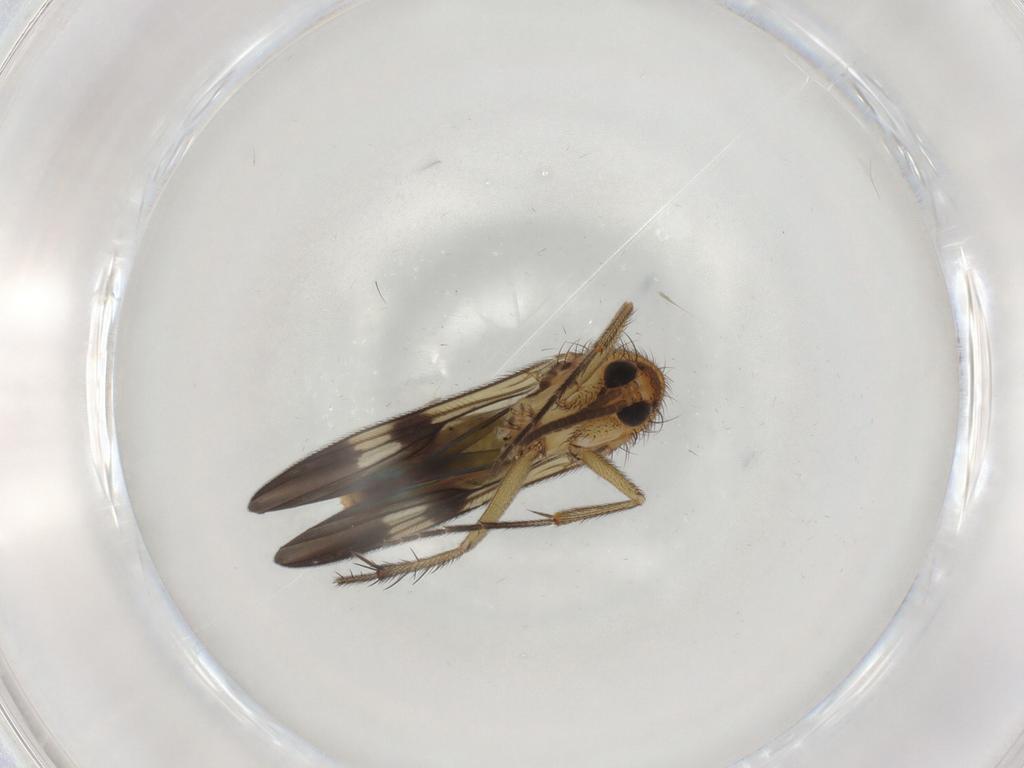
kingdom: Animalia
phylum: Arthropoda
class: Insecta
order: Diptera
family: Mycetophilidae
